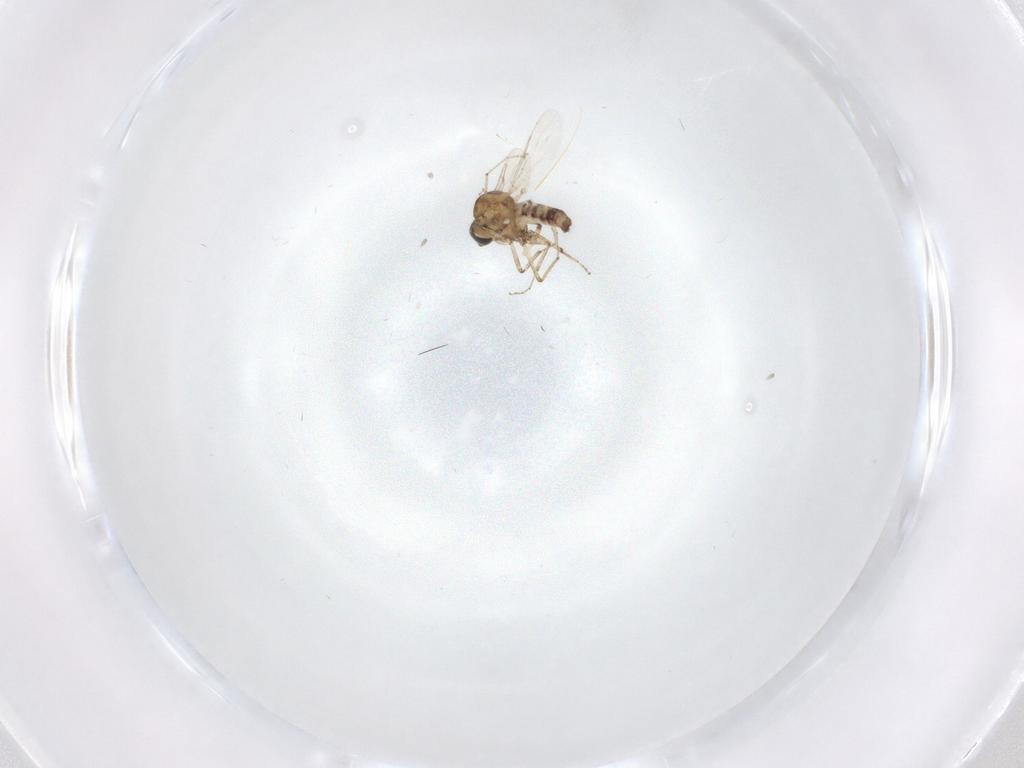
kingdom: Animalia
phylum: Arthropoda
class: Insecta
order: Diptera
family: Ceratopogonidae
